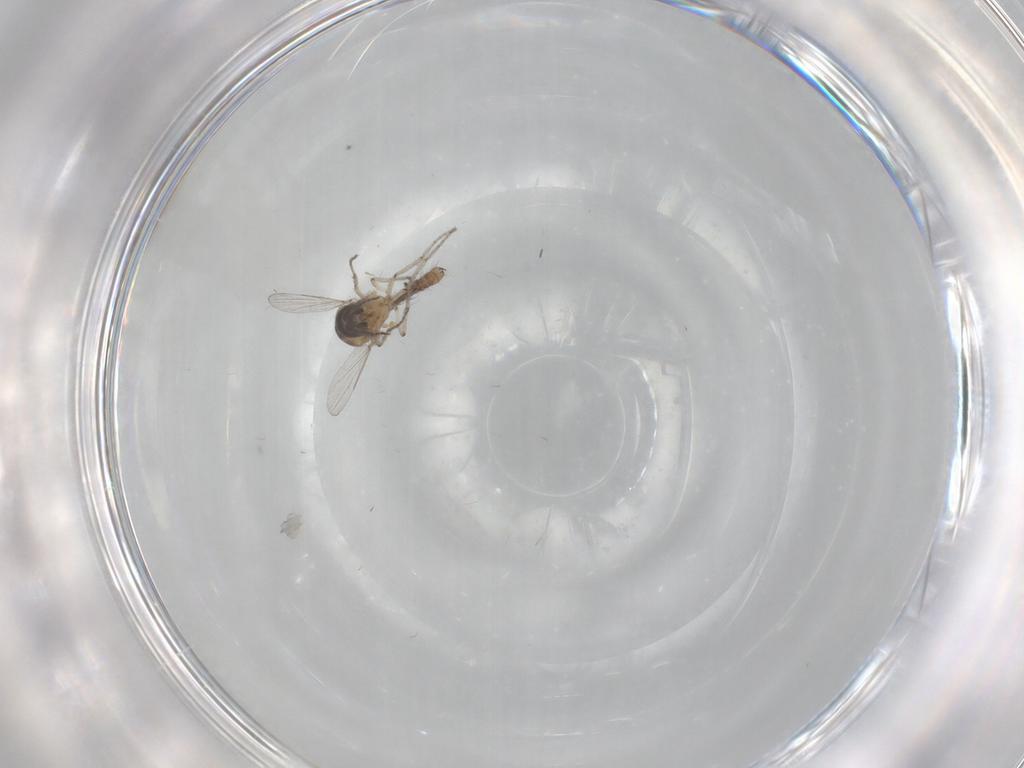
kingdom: Animalia
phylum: Arthropoda
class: Insecta
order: Diptera
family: Ceratopogonidae
